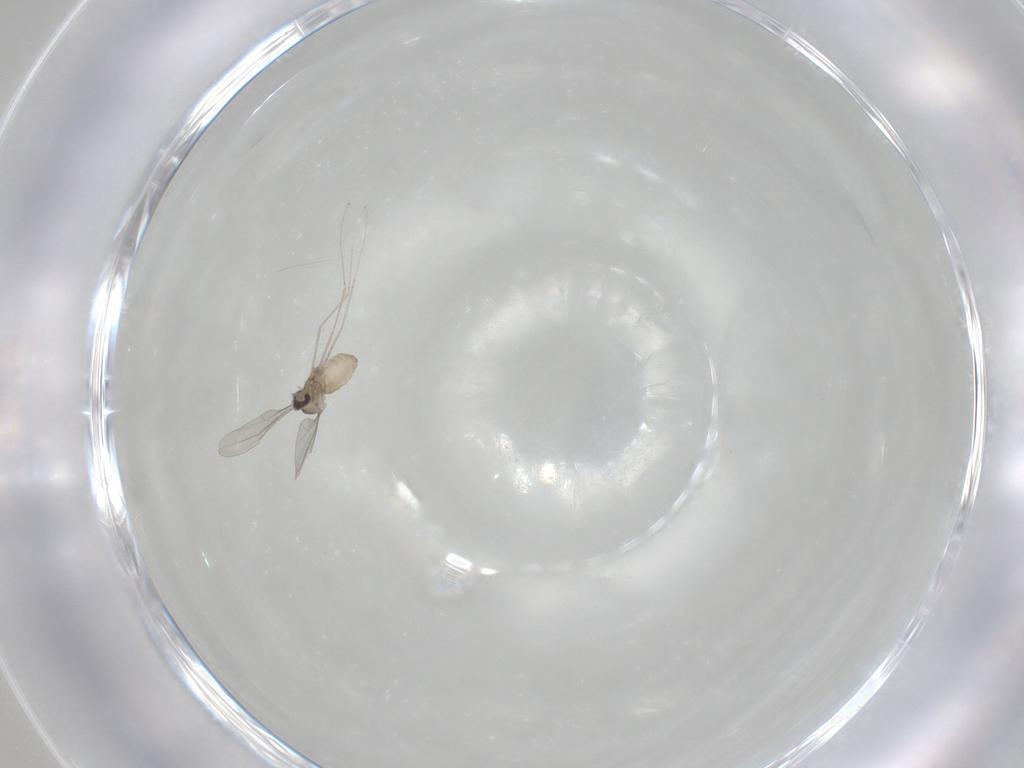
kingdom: Animalia
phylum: Arthropoda
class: Insecta
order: Diptera
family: Cecidomyiidae
